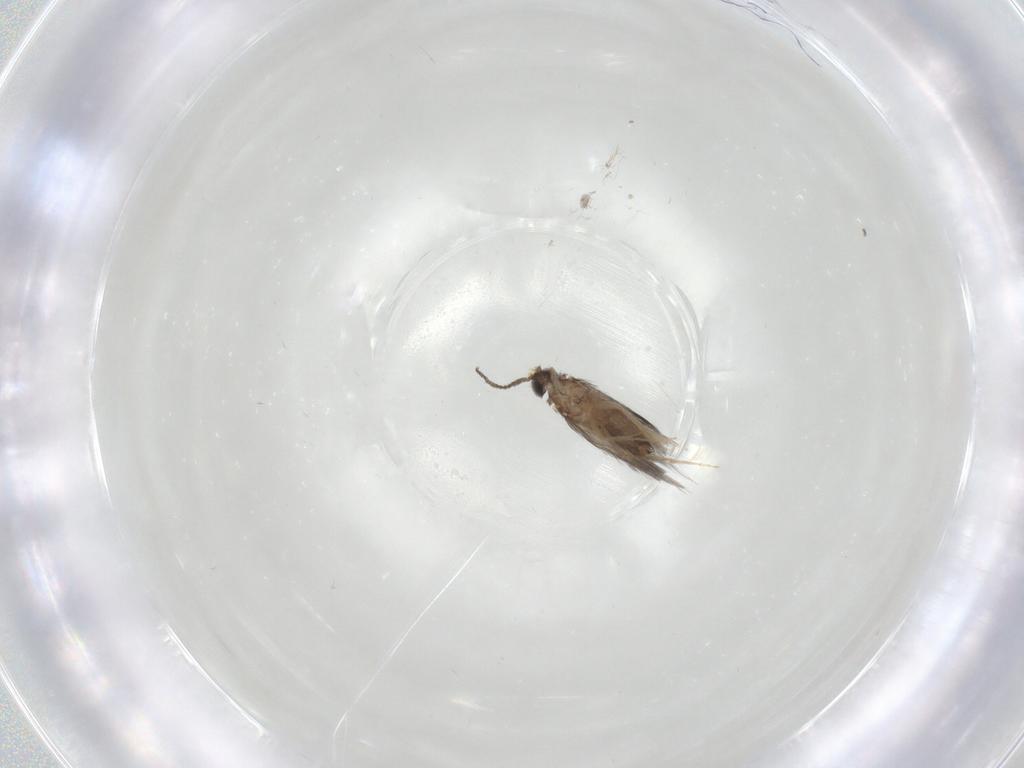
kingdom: Animalia
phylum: Arthropoda
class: Insecta
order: Trichoptera
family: Hydroptilidae
